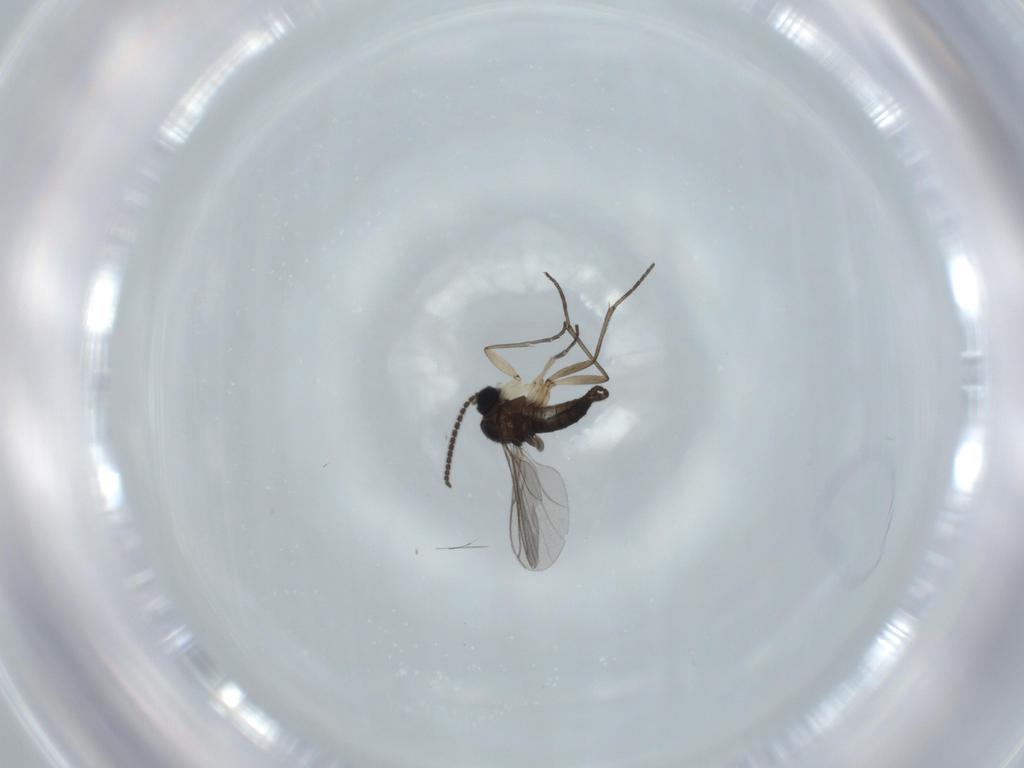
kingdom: Animalia
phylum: Arthropoda
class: Insecta
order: Diptera
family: Sciaridae
